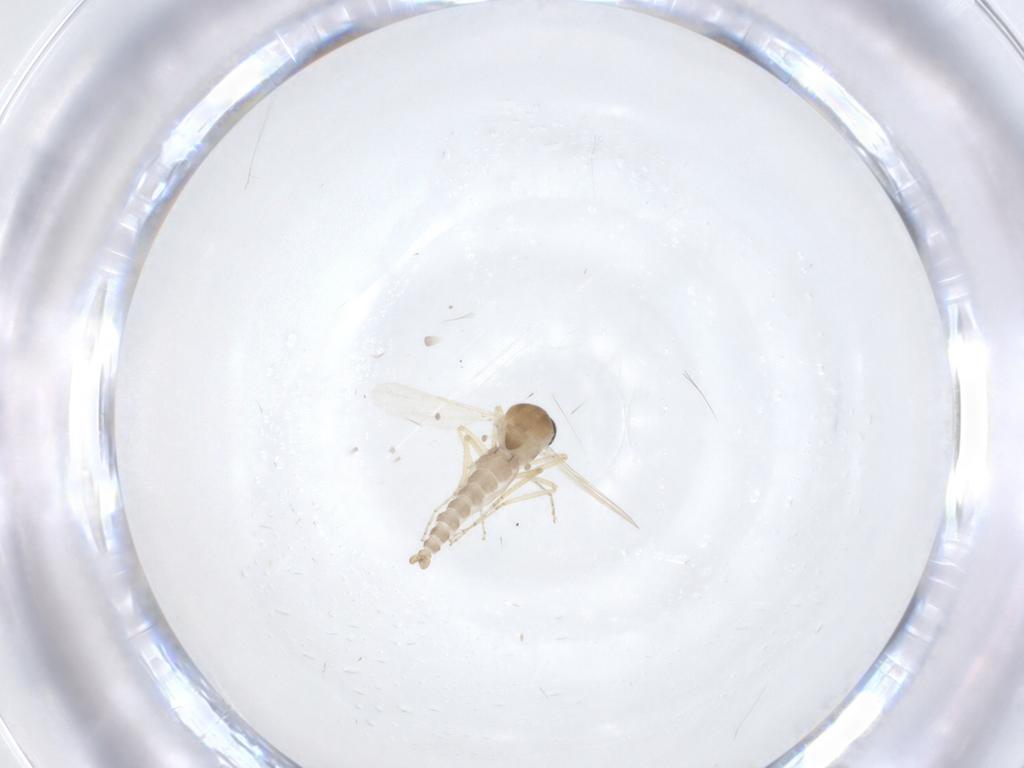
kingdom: Animalia
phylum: Arthropoda
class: Insecta
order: Diptera
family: Ceratopogonidae
